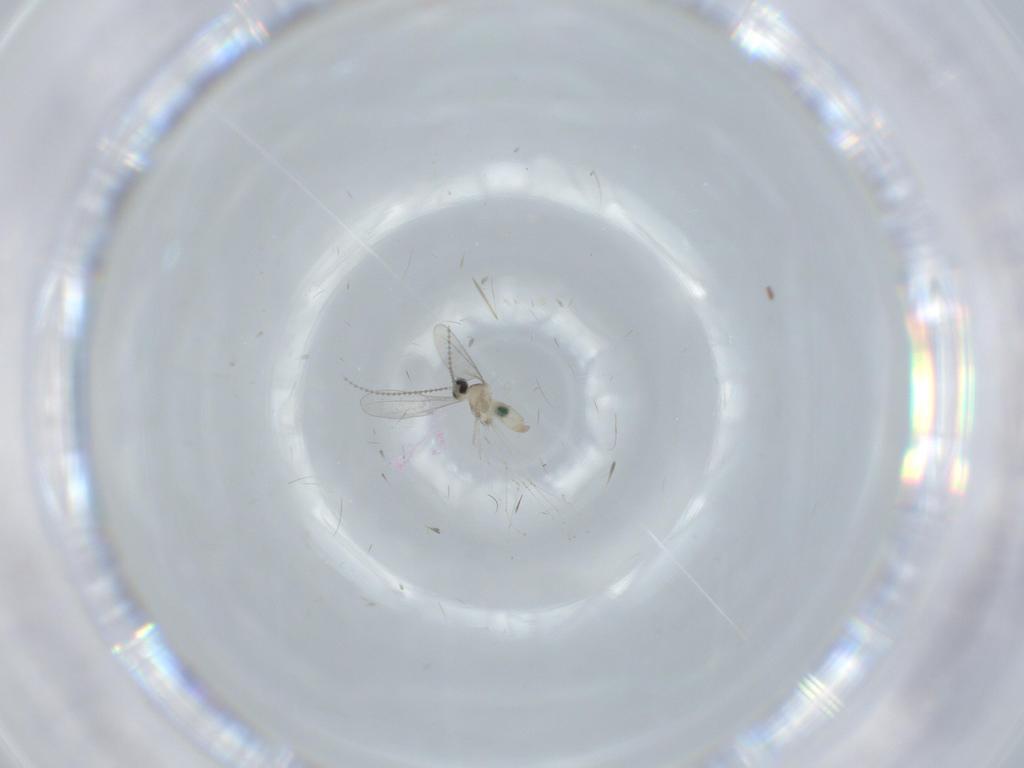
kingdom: Animalia
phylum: Arthropoda
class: Insecta
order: Diptera
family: Cecidomyiidae
